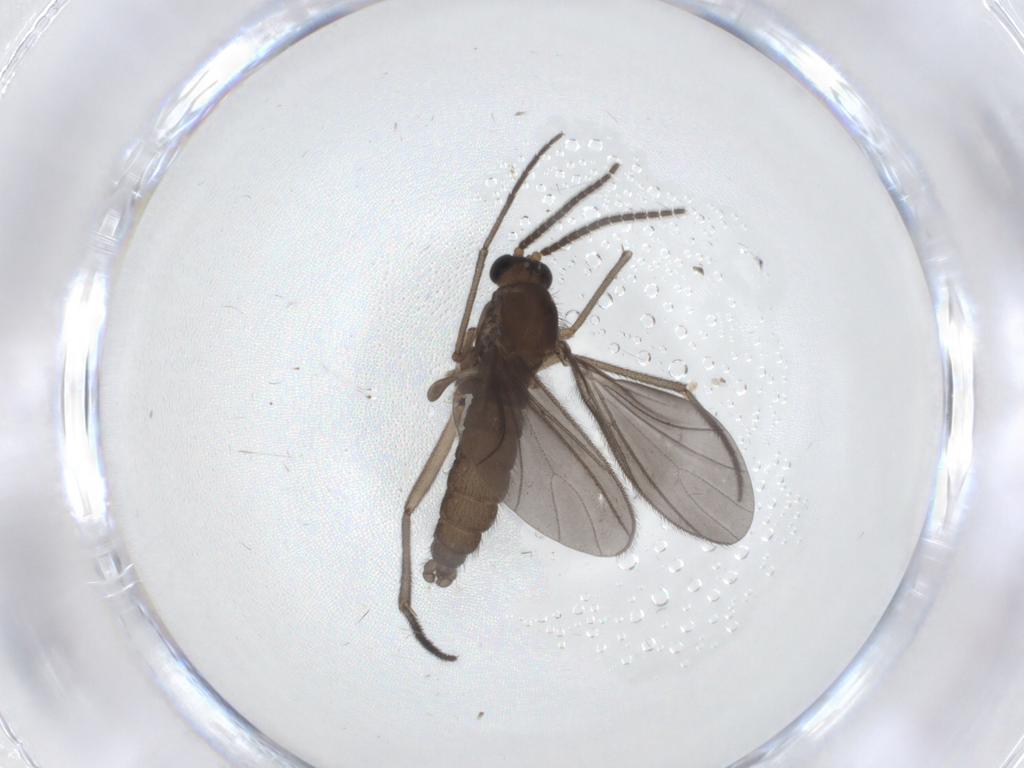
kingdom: Animalia
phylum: Arthropoda
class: Insecta
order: Diptera
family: Sciaridae
